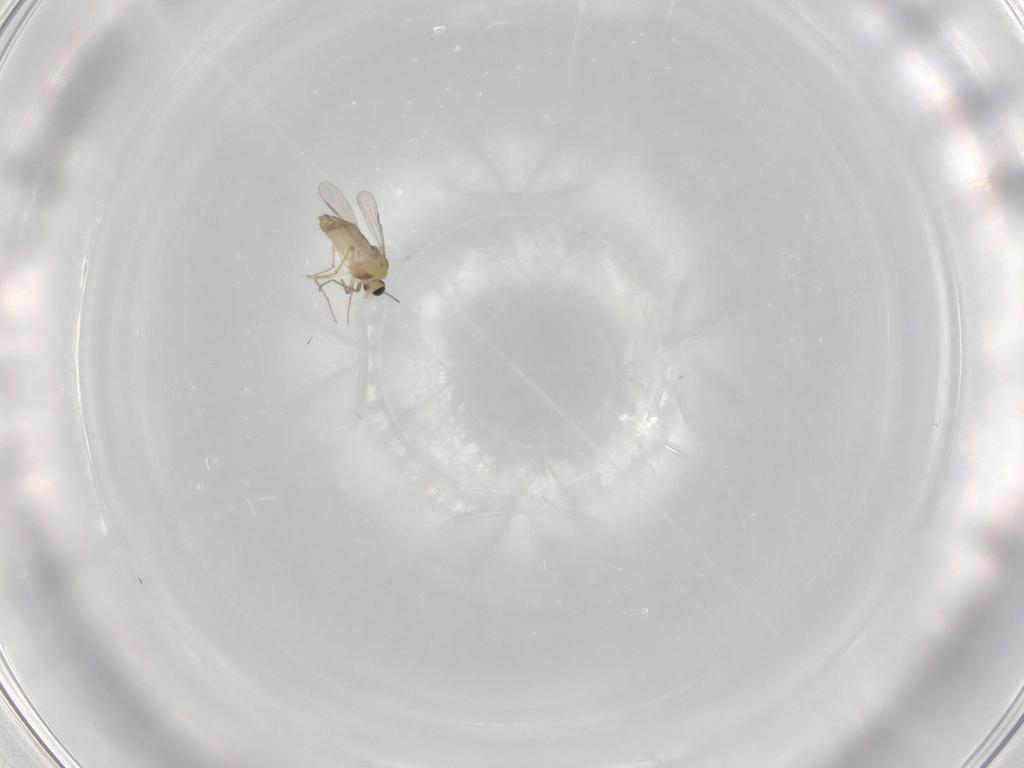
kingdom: Animalia
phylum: Arthropoda
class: Insecta
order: Diptera
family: Chironomidae
